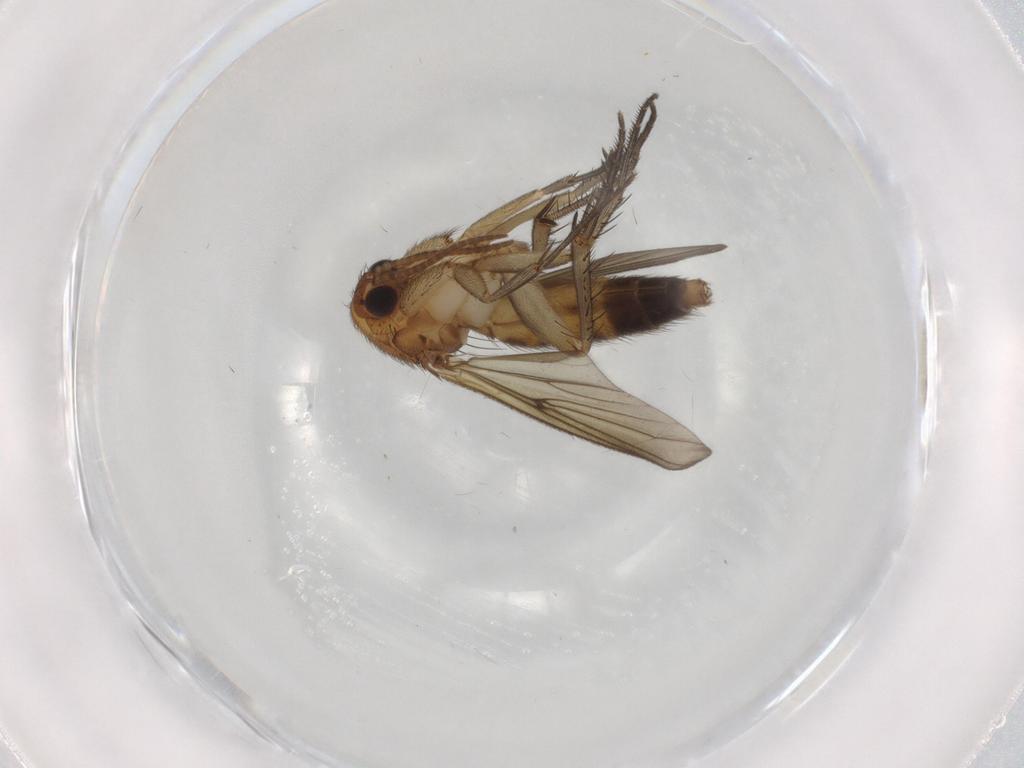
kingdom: Animalia
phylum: Arthropoda
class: Insecta
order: Diptera
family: Mycetophilidae
